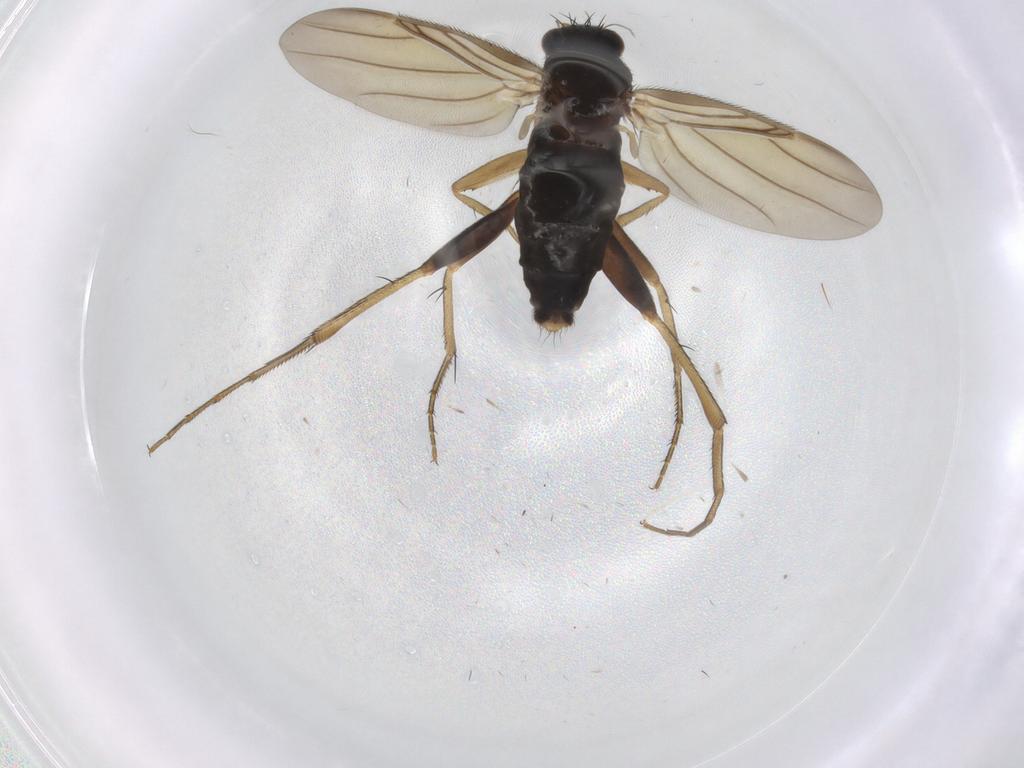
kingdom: Animalia
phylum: Arthropoda
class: Insecta
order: Diptera
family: Phoridae
